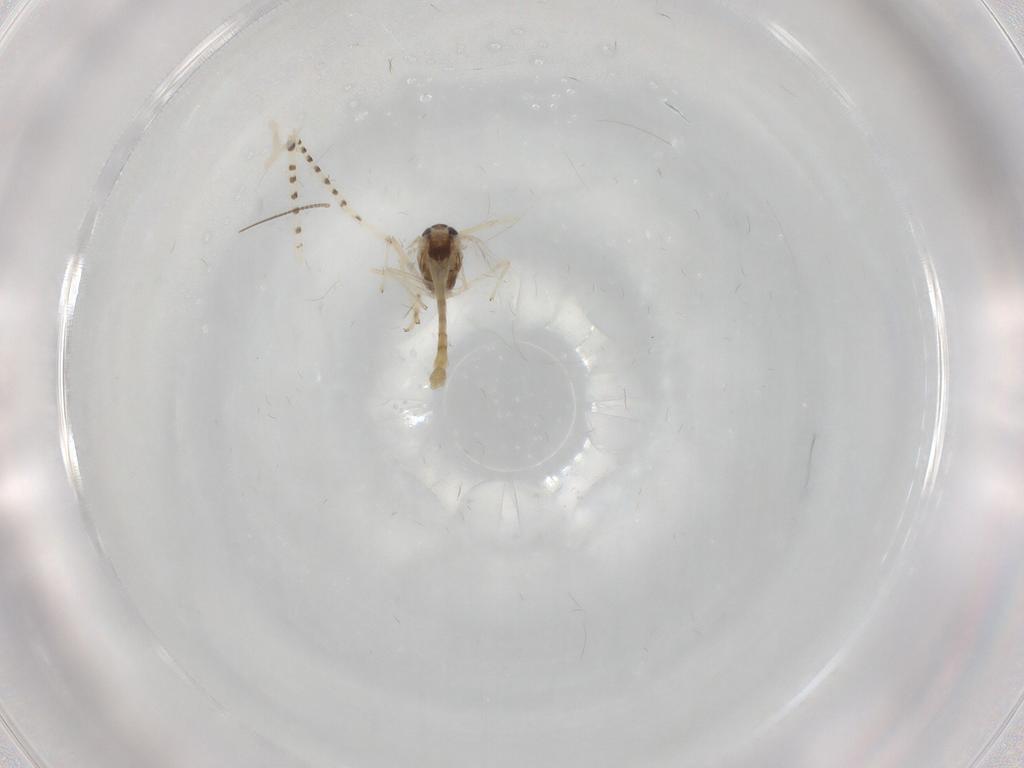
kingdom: Animalia
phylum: Arthropoda
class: Insecta
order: Diptera
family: Chironomidae
